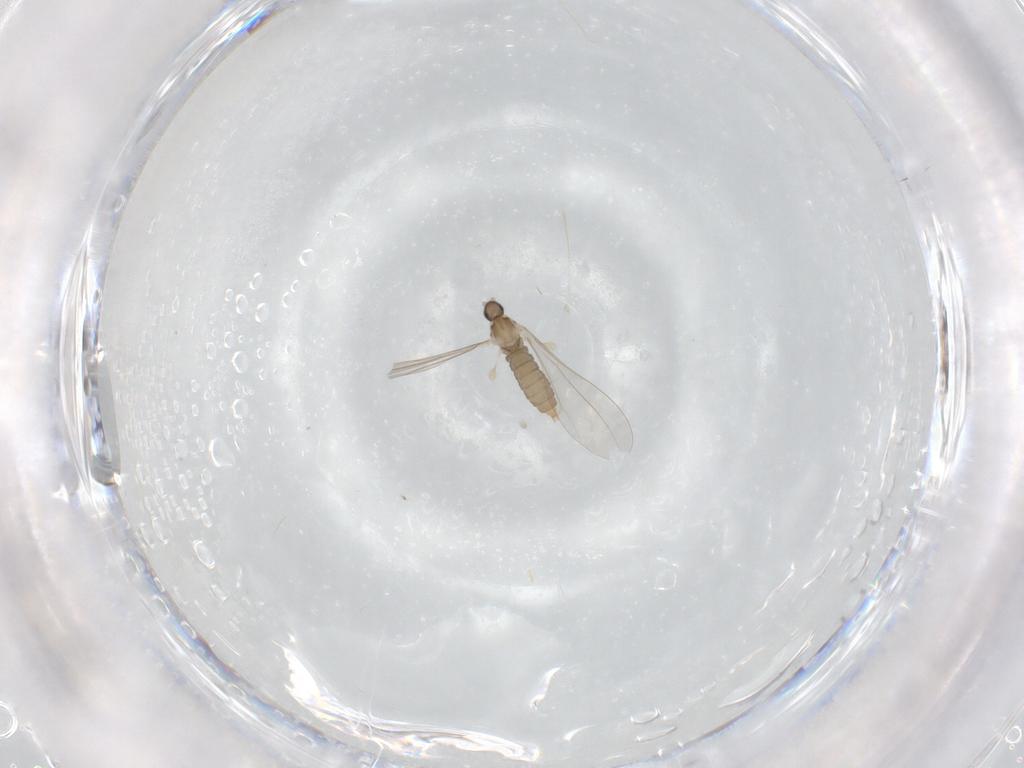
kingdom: Animalia
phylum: Arthropoda
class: Insecta
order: Diptera
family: Cecidomyiidae
